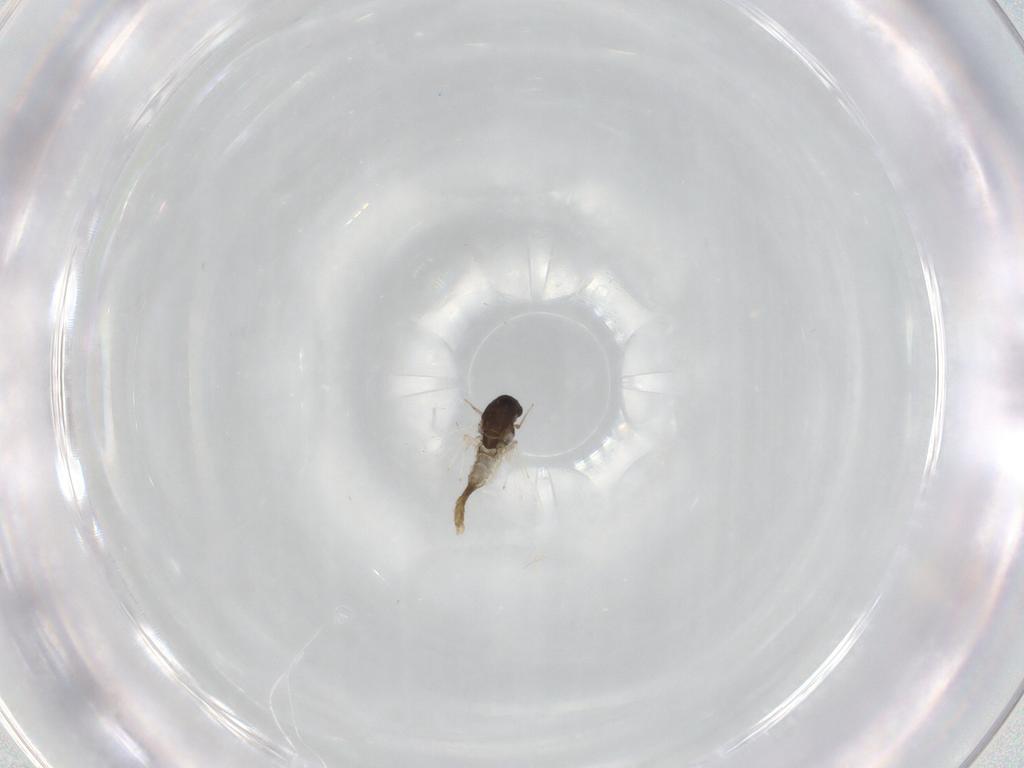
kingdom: Animalia
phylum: Arthropoda
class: Insecta
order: Diptera
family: Chironomidae
